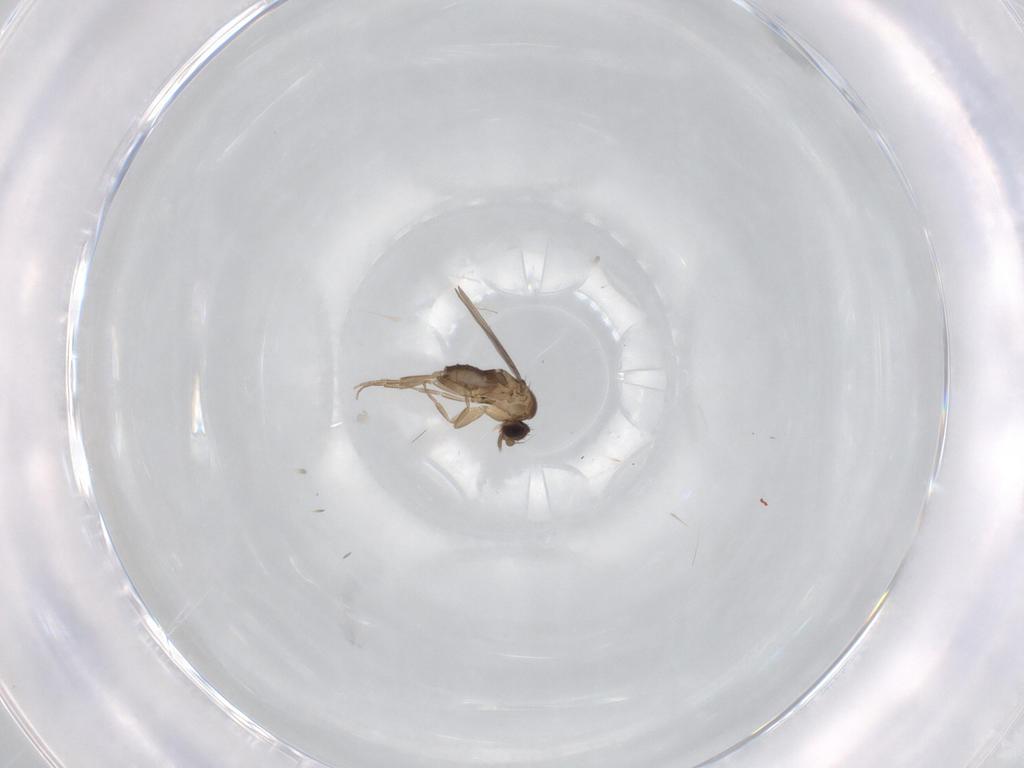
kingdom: Animalia
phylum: Arthropoda
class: Insecta
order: Diptera
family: Phoridae
